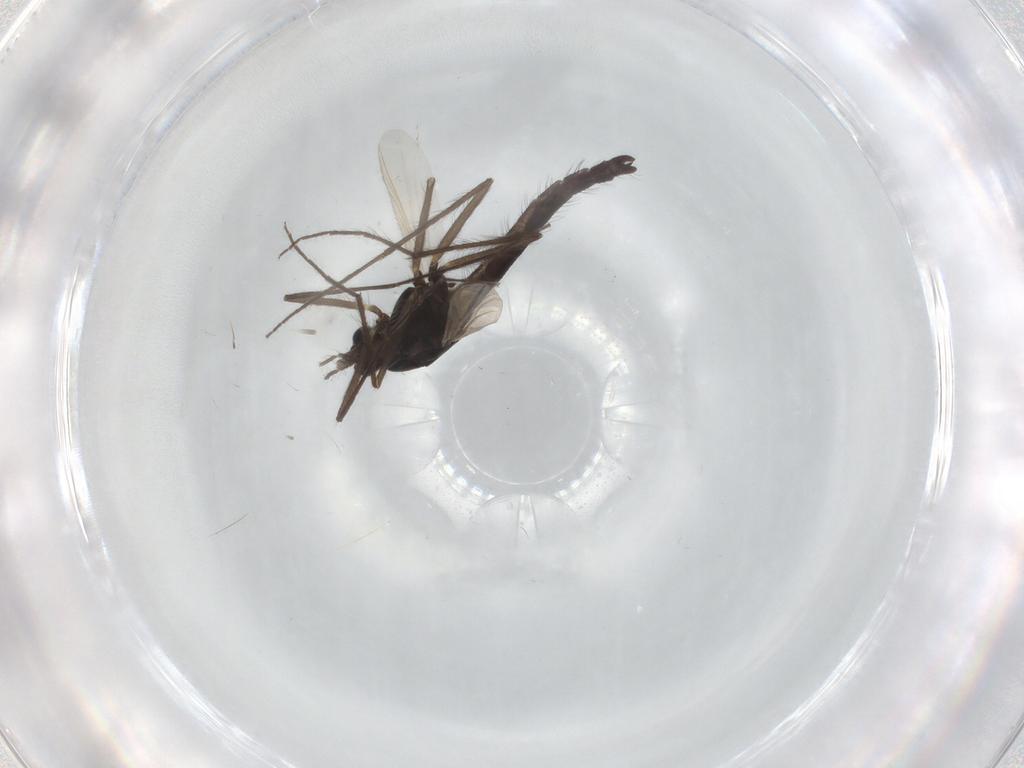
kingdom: Animalia
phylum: Arthropoda
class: Insecta
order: Diptera
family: Chironomidae
